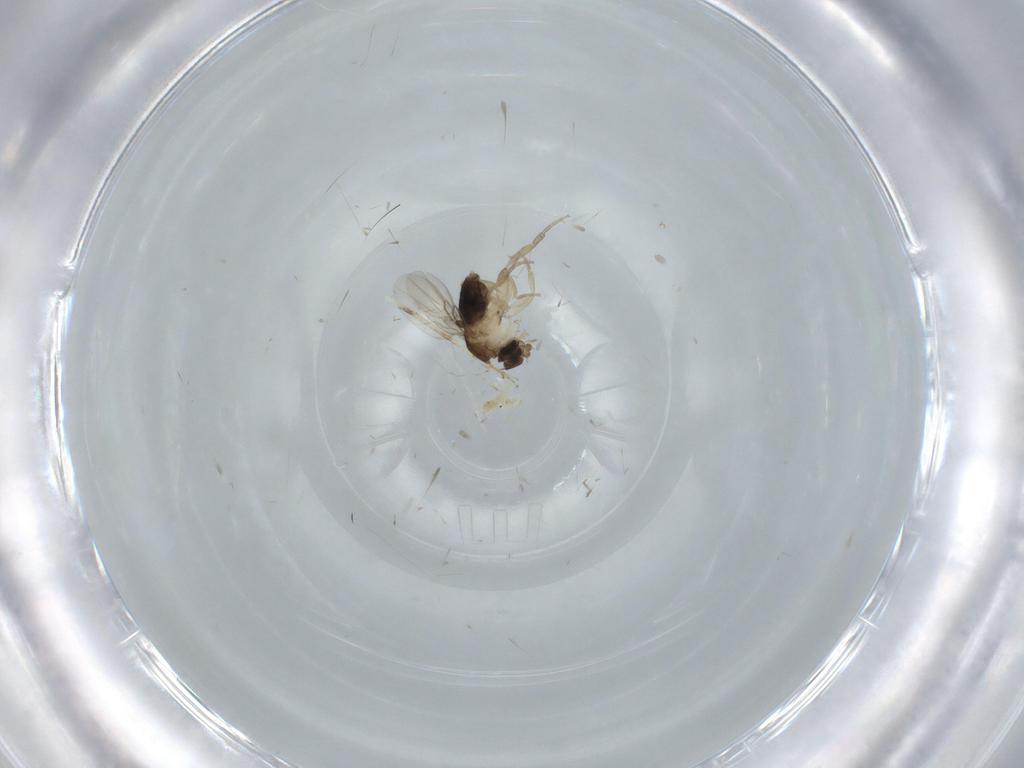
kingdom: Animalia
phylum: Arthropoda
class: Insecta
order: Diptera
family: Phoridae
